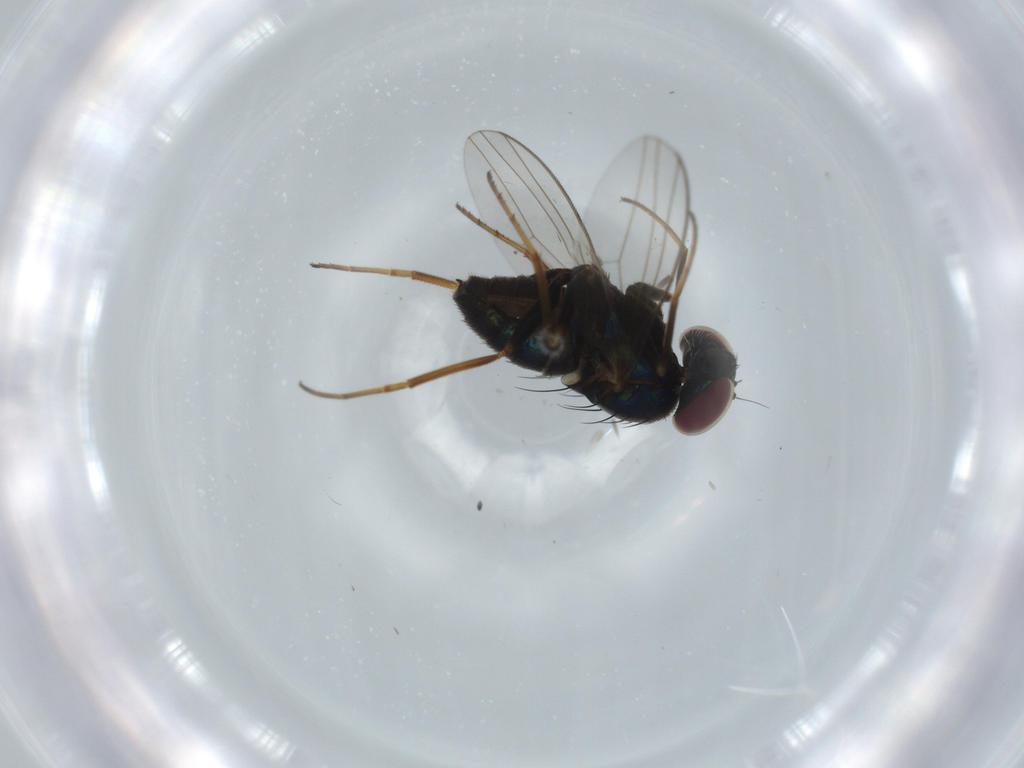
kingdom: Animalia
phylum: Arthropoda
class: Insecta
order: Diptera
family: Dolichopodidae
